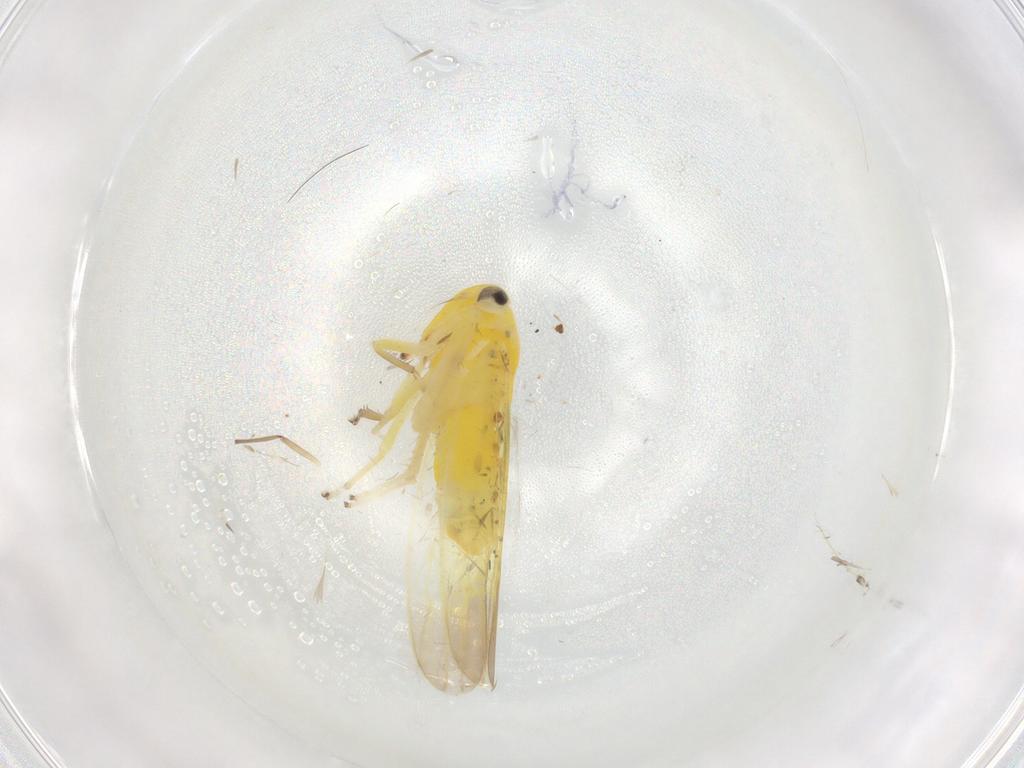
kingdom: Animalia
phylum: Arthropoda
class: Insecta
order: Hemiptera
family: Cicadellidae
